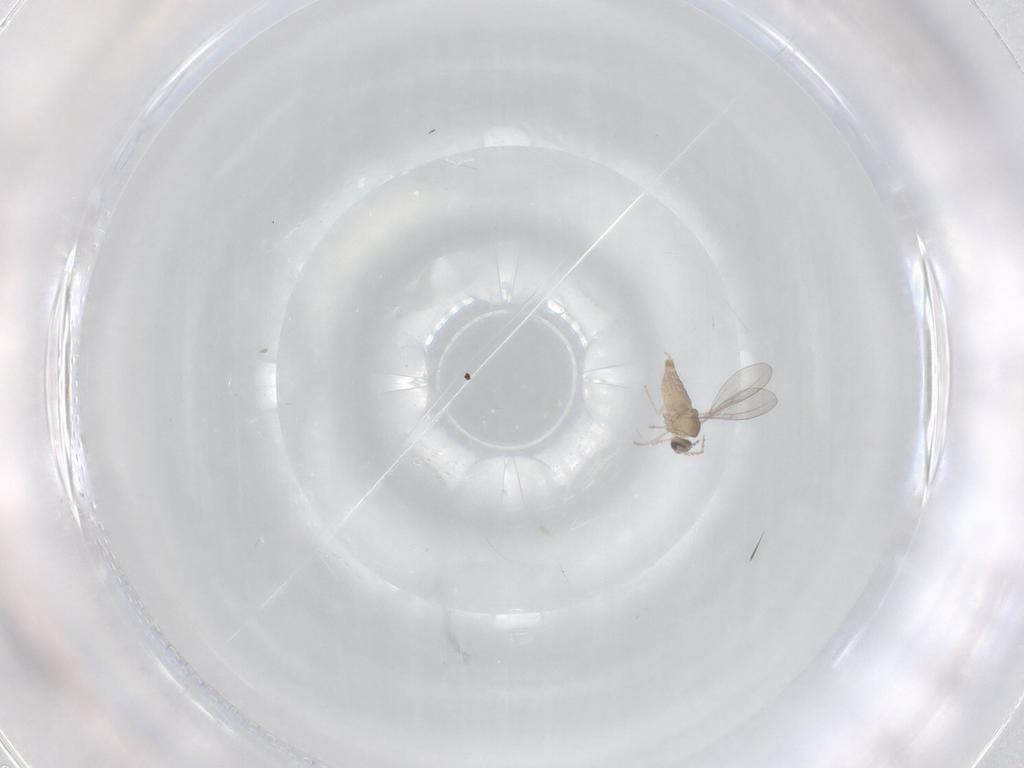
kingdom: Animalia
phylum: Arthropoda
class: Insecta
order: Diptera
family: Cecidomyiidae
